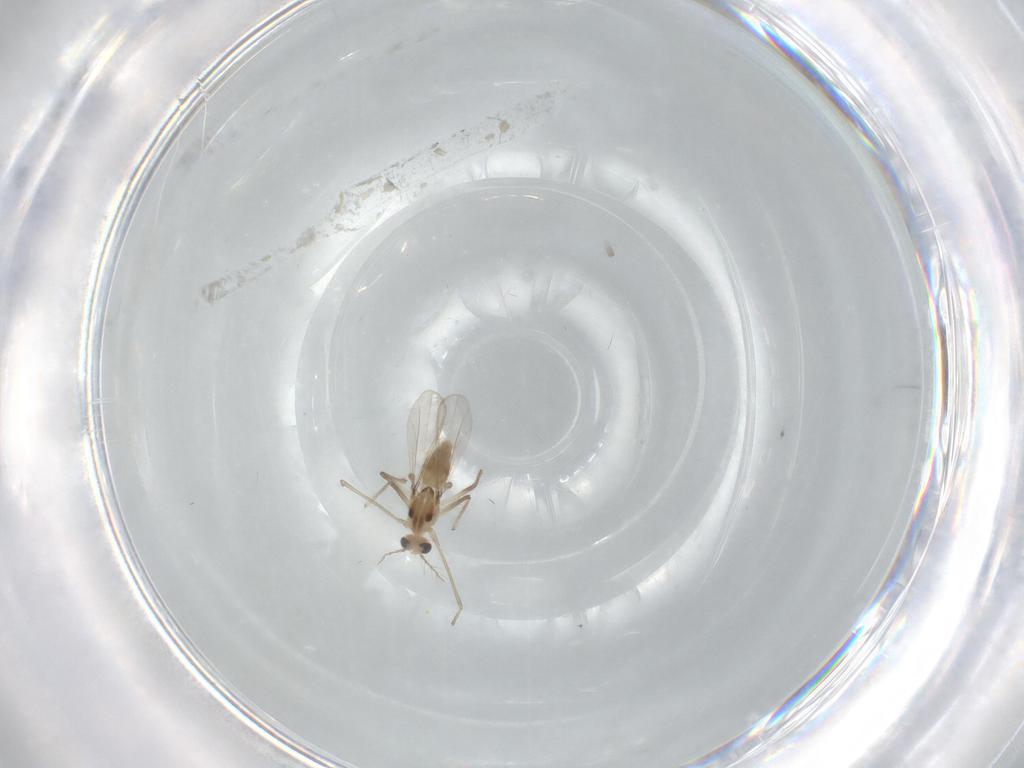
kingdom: Animalia
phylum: Arthropoda
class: Insecta
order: Diptera
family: Chironomidae
